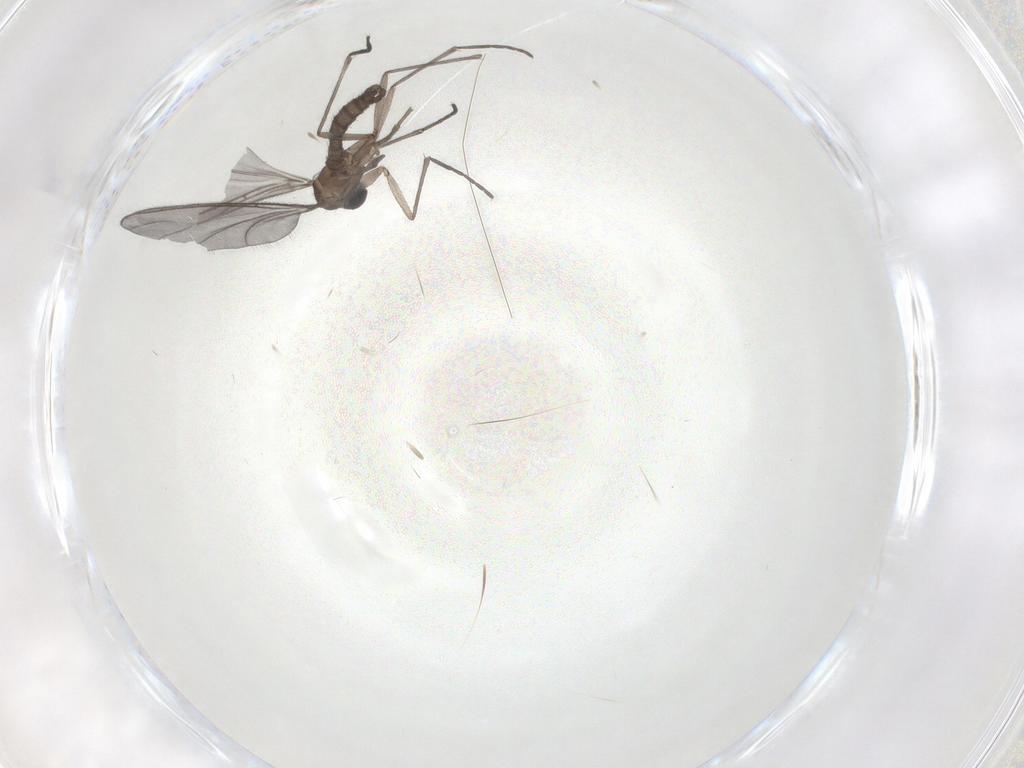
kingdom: Animalia
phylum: Arthropoda
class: Insecta
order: Diptera
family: Sciaridae
